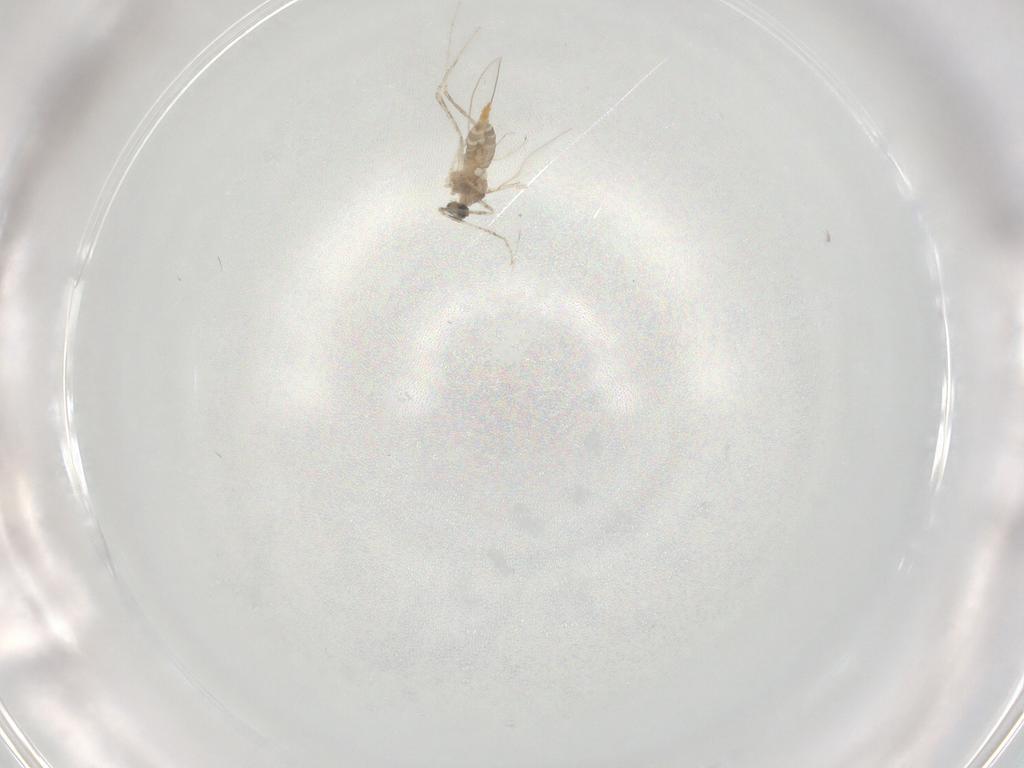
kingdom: Animalia
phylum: Arthropoda
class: Insecta
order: Diptera
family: Cecidomyiidae
